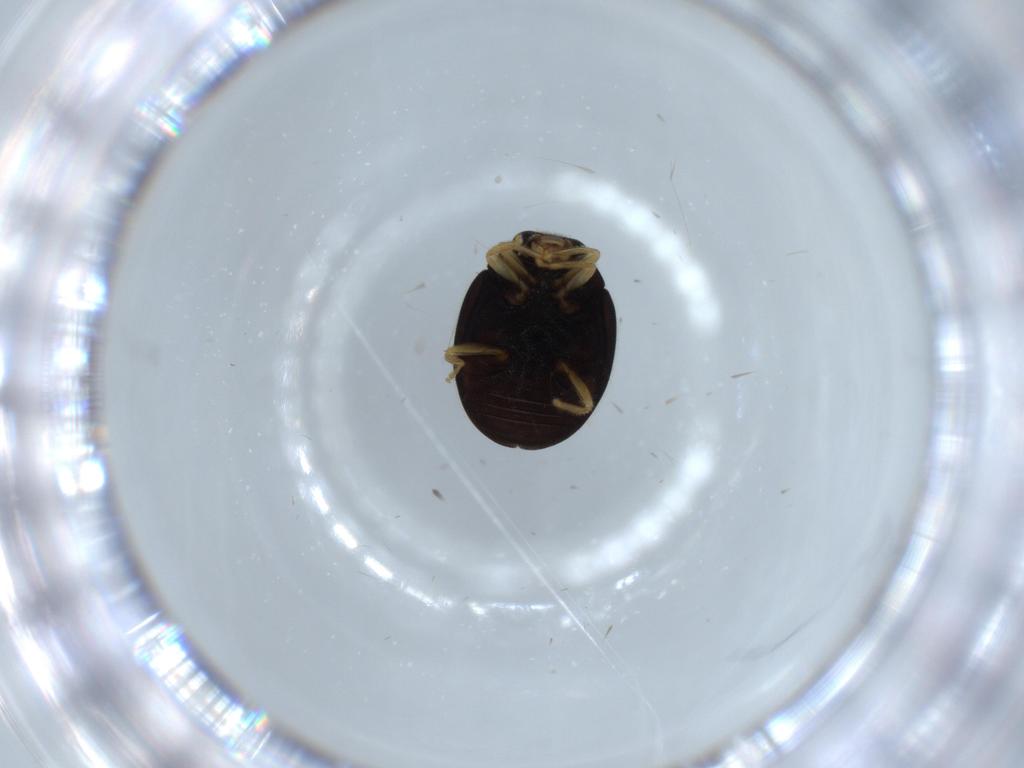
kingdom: Animalia
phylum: Arthropoda
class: Insecta
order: Coleoptera
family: Coccinellidae
